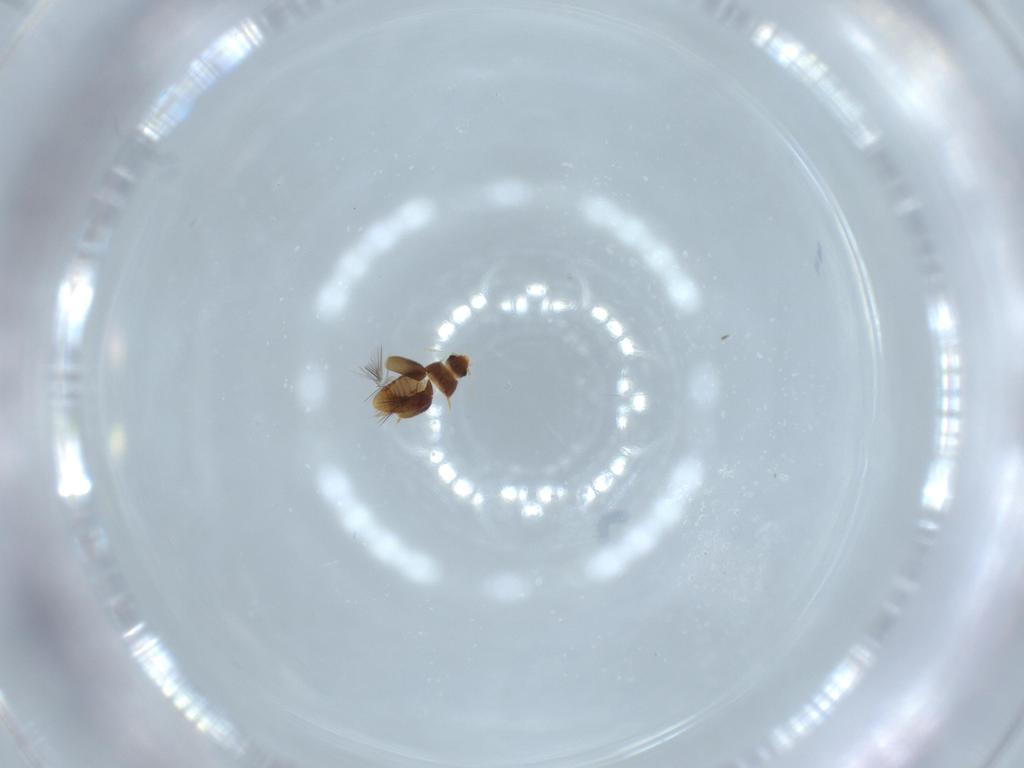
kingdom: Animalia
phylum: Arthropoda
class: Insecta
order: Coleoptera
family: Ptiliidae
